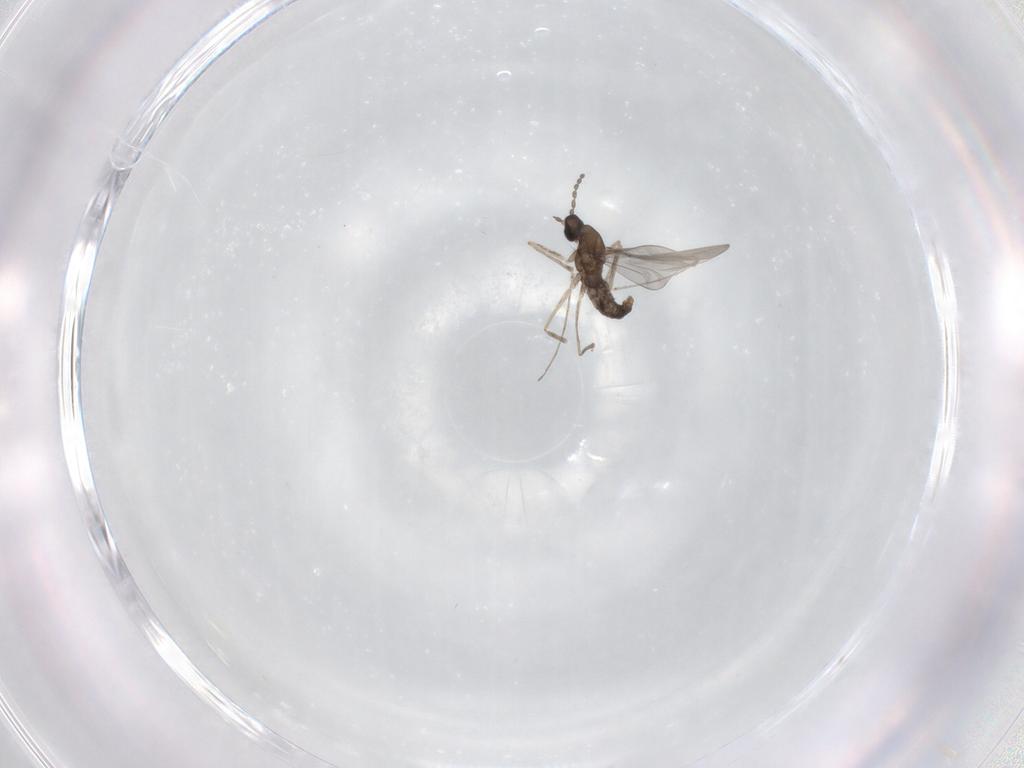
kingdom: Animalia
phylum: Arthropoda
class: Insecta
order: Diptera
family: Cecidomyiidae
